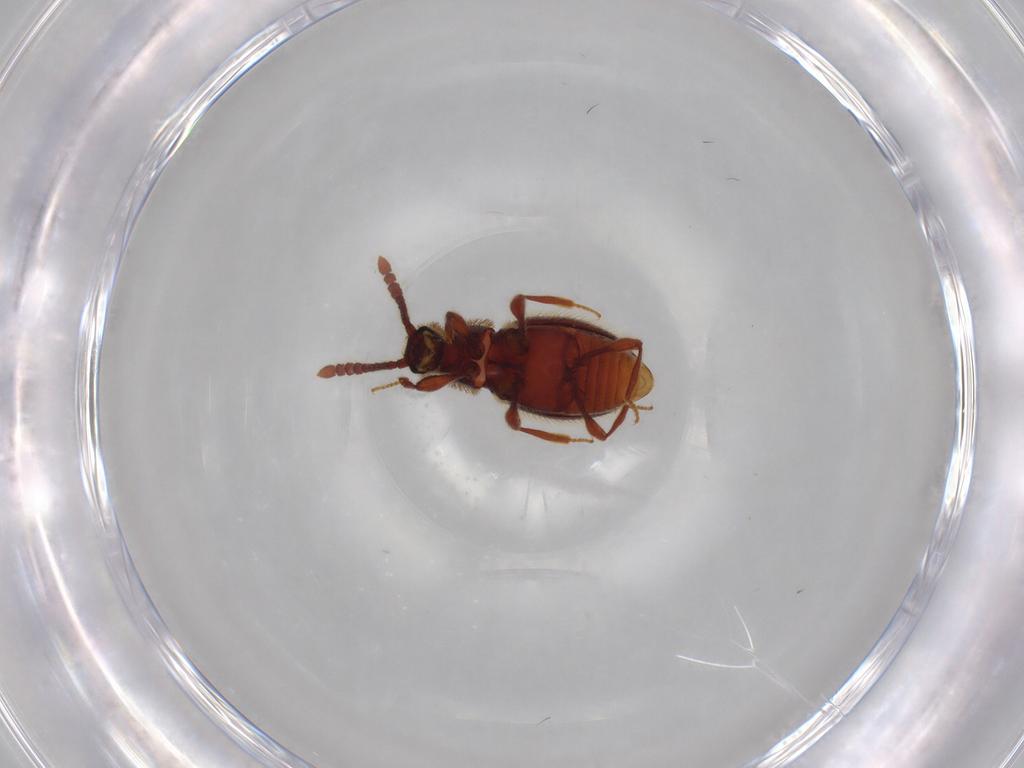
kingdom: Animalia
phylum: Arthropoda
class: Insecta
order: Coleoptera
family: Staphylinidae
